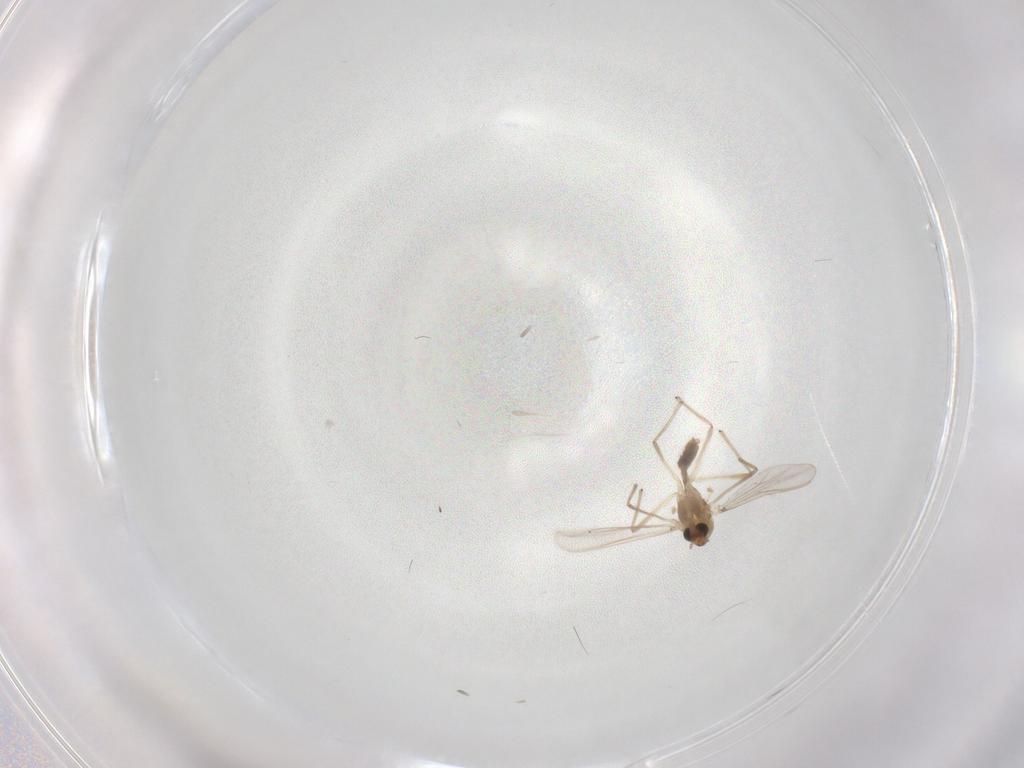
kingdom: Animalia
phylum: Arthropoda
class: Insecta
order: Diptera
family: Chironomidae
